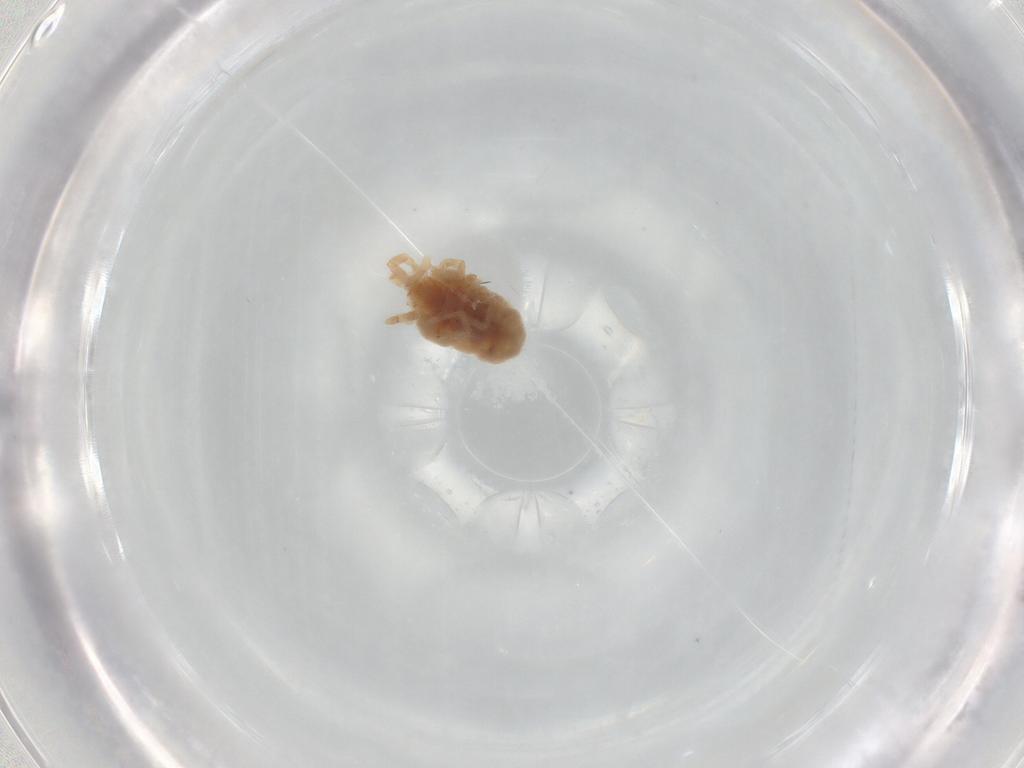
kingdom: Animalia
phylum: Arthropoda
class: Arachnida
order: Trombidiformes
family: Erythraeidae
